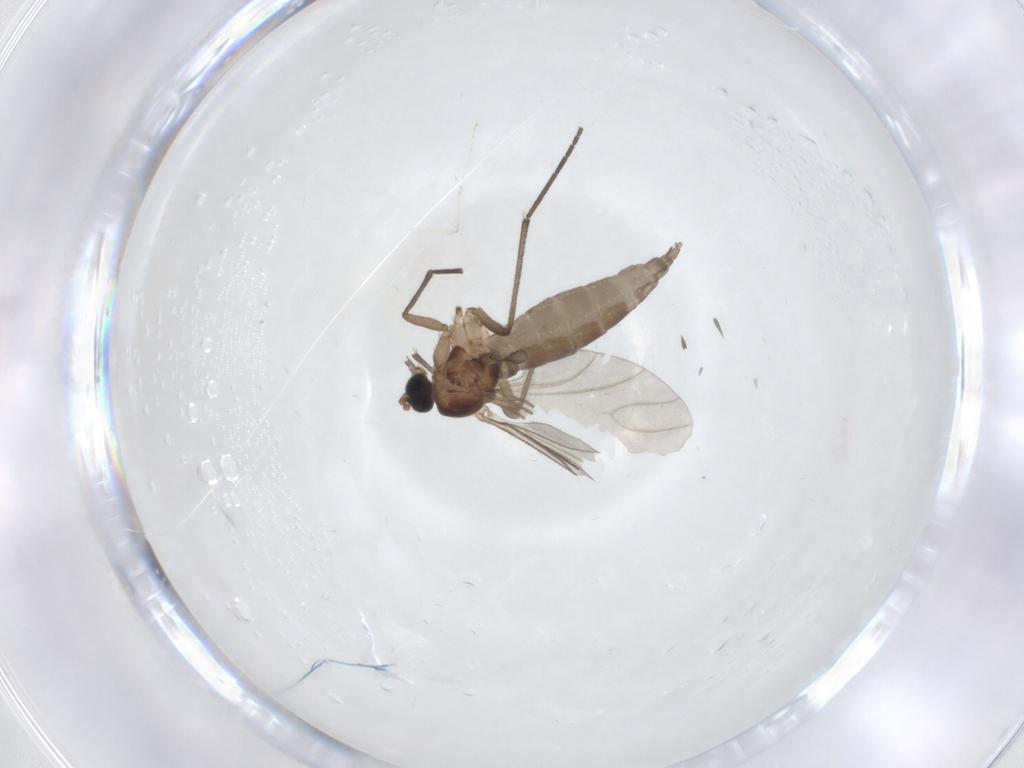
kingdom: Animalia
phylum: Arthropoda
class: Insecta
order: Diptera
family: Sciaridae
